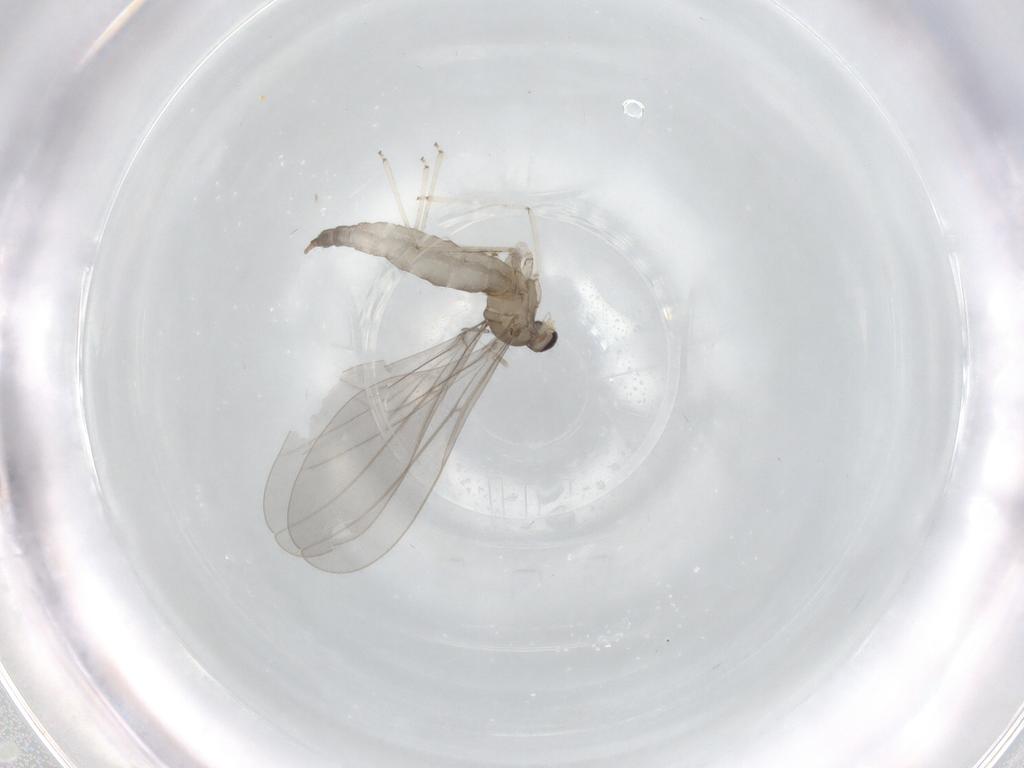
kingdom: Animalia
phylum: Arthropoda
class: Insecta
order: Diptera
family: Cecidomyiidae
